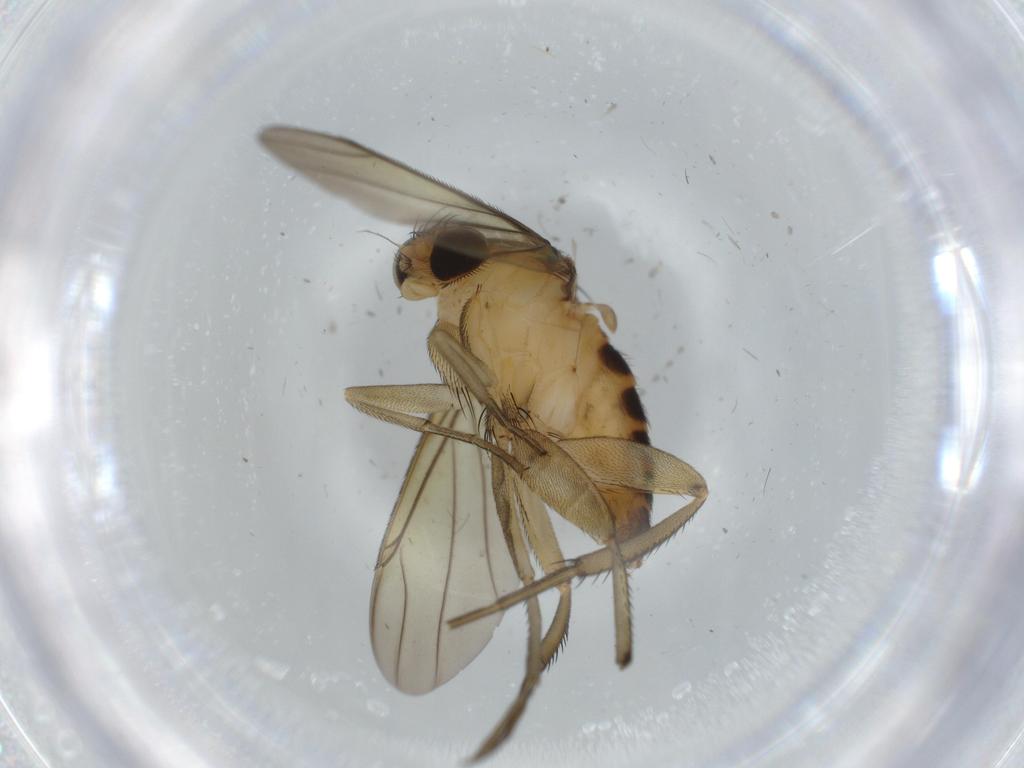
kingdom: Animalia
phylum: Arthropoda
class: Insecta
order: Diptera
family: Phoridae
